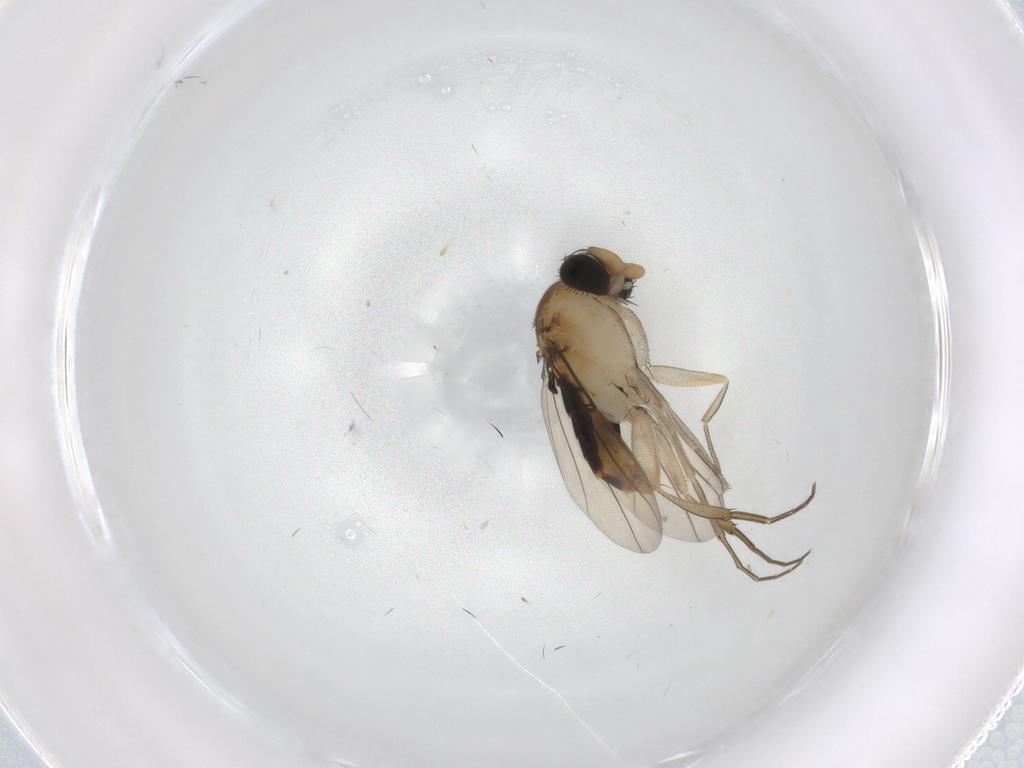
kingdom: Animalia
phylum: Arthropoda
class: Insecta
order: Diptera
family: Phoridae
